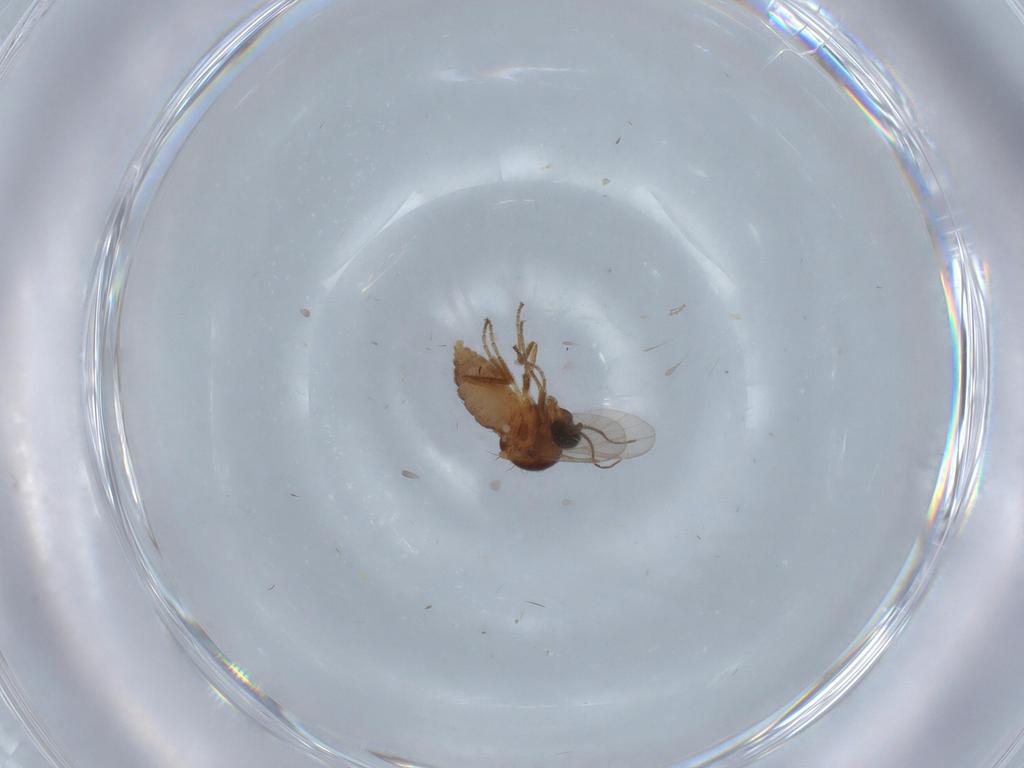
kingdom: Animalia
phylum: Arthropoda
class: Insecta
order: Diptera
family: Ceratopogonidae
